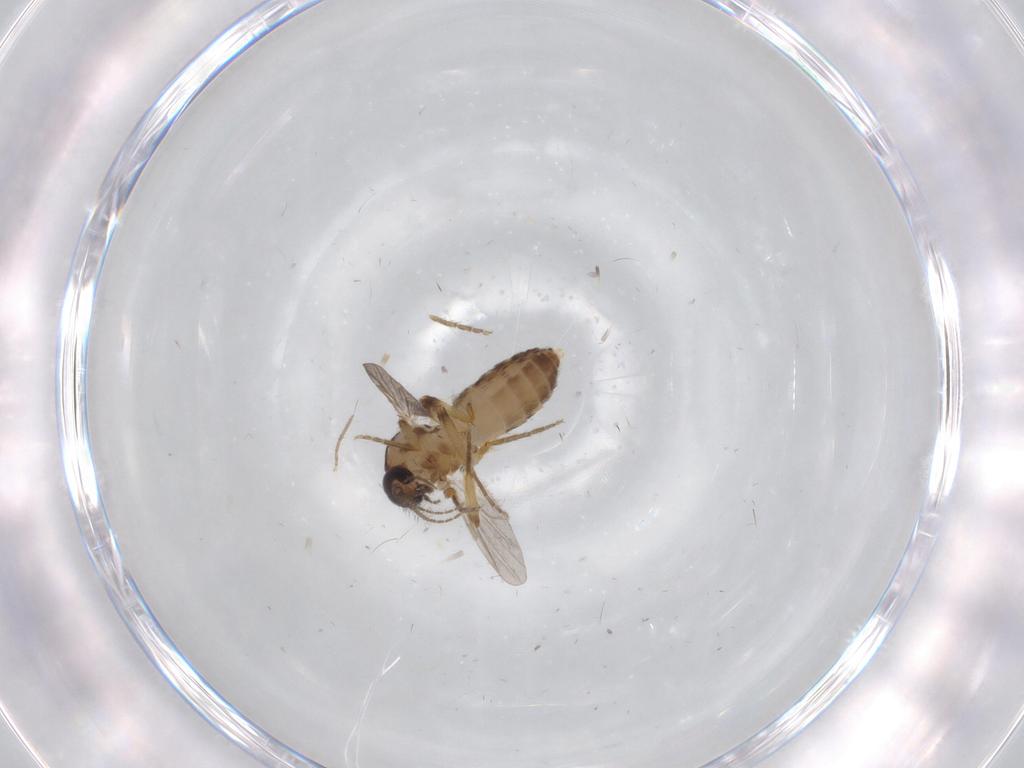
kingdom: Animalia
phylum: Arthropoda
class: Insecta
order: Diptera
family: Ceratopogonidae
